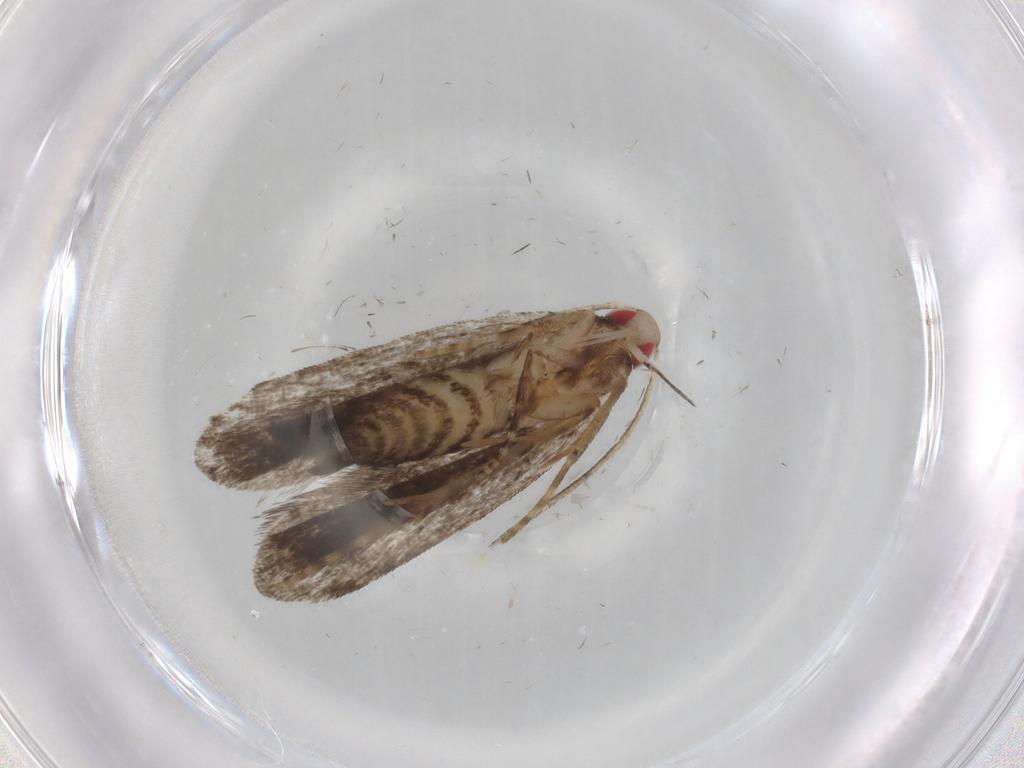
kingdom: Animalia
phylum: Arthropoda
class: Insecta
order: Lepidoptera
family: Gelechiidae
